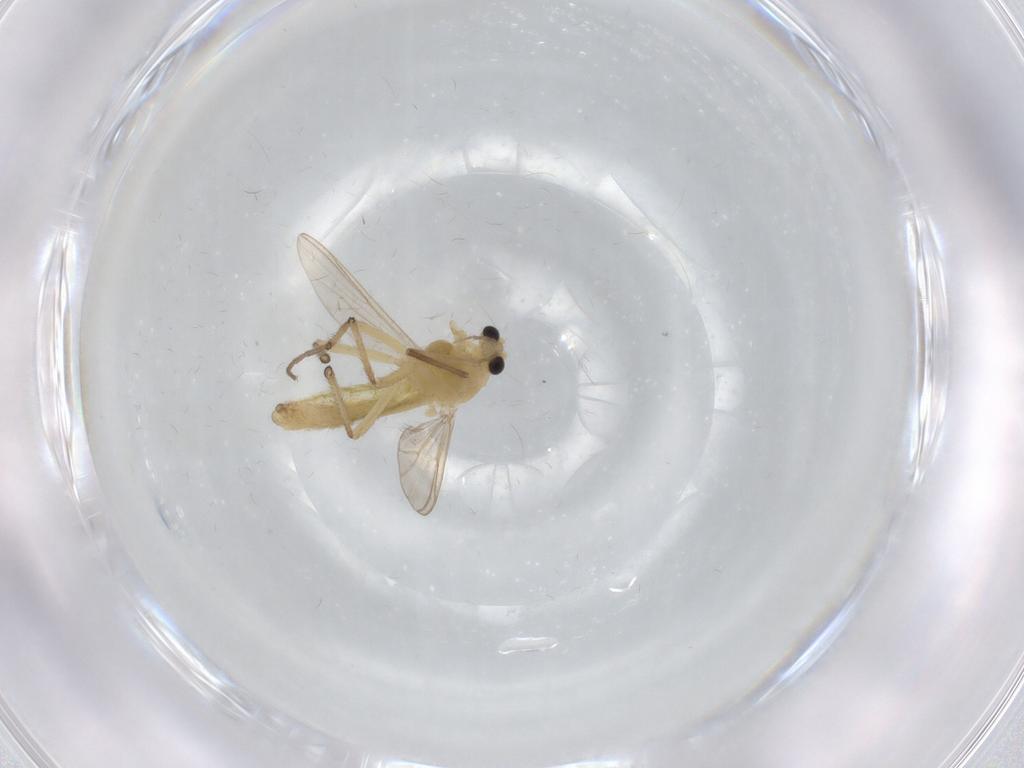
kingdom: Animalia
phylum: Arthropoda
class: Insecta
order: Diptera
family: Chironomidae
